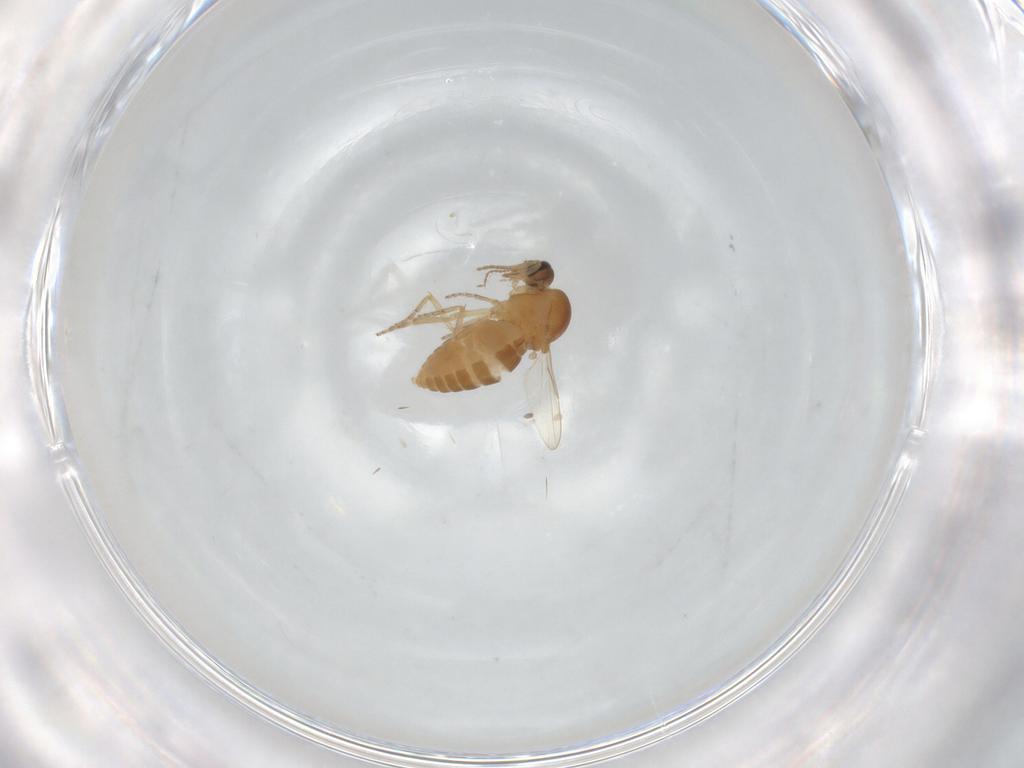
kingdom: Animalia
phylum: Arthropoda
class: Insecta
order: Diptera
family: Ceratopogonidae
